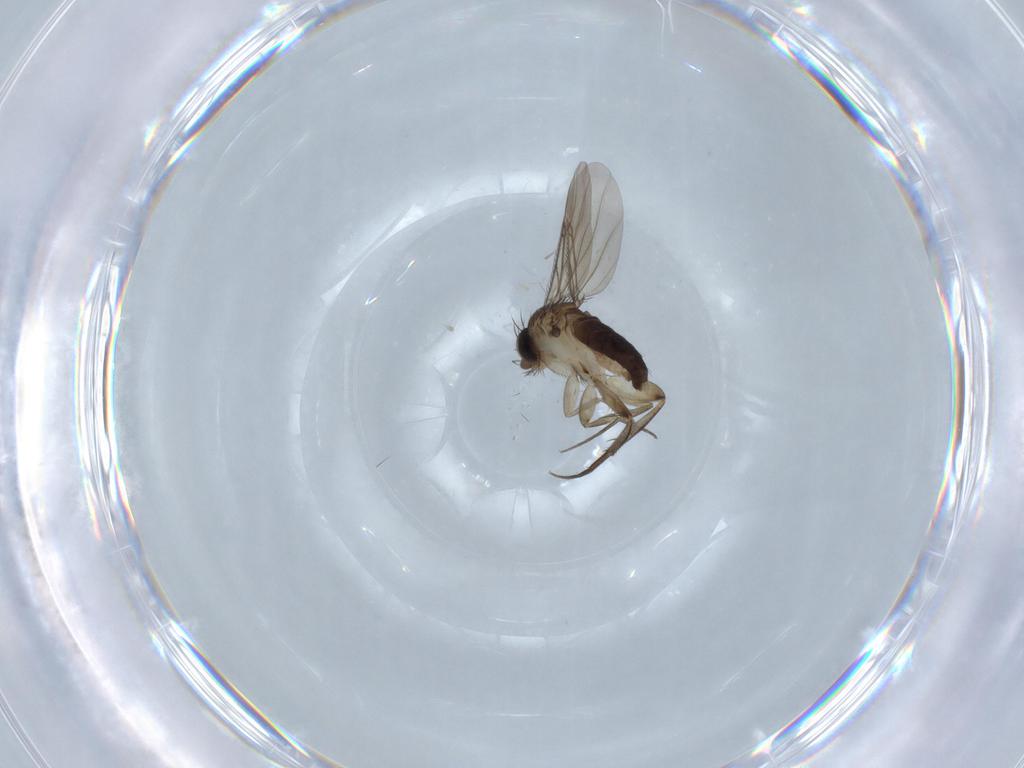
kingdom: Animalia
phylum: Arthropoda
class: Insecta
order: Diptera
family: Phoridae
